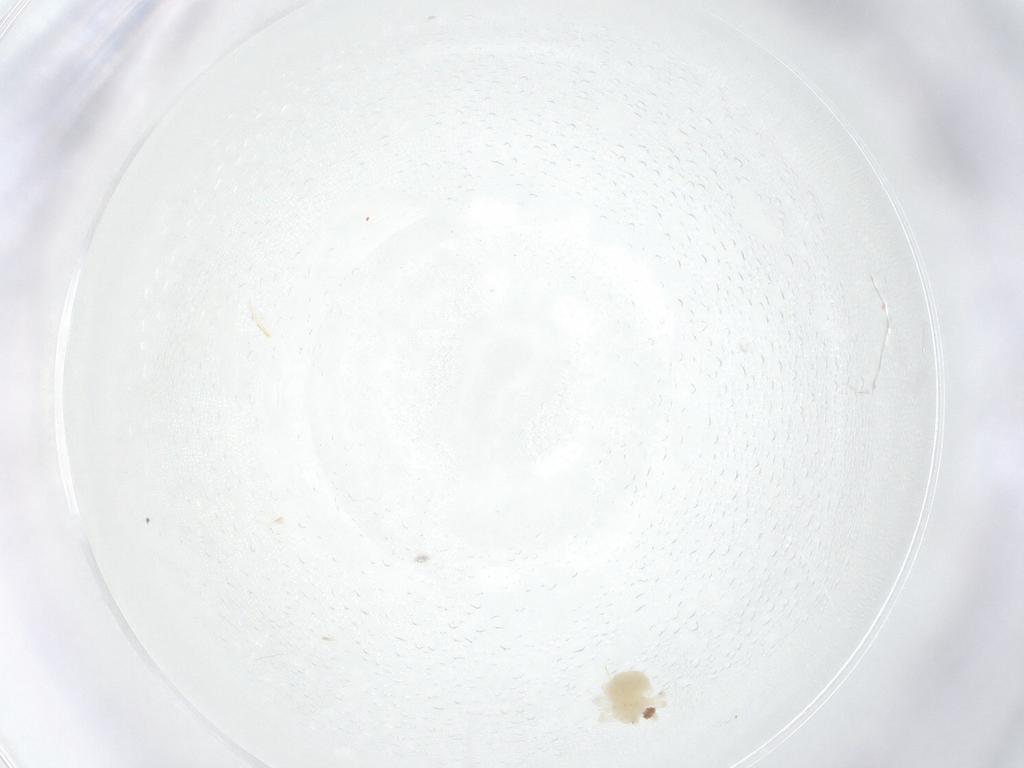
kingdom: Animalia
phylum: Arthropoda
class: Arachnida
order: Trombidiformes
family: Anystidae
